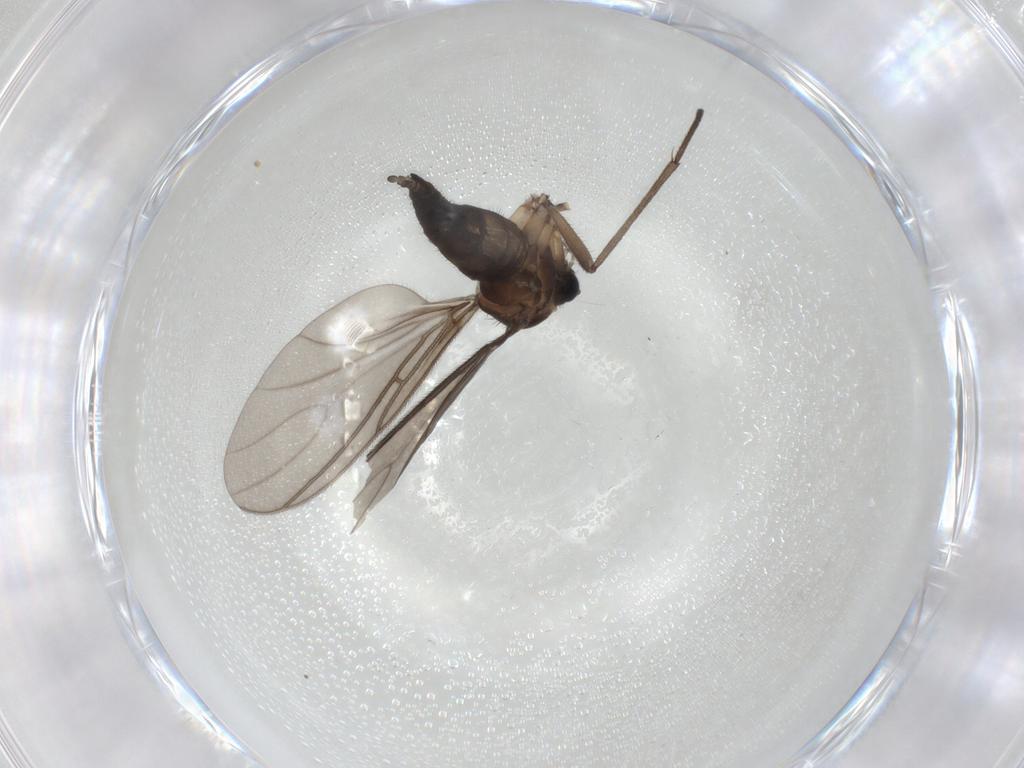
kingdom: Animalia
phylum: Arthropoda
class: Insecta
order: Diptera
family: Sciaridae
